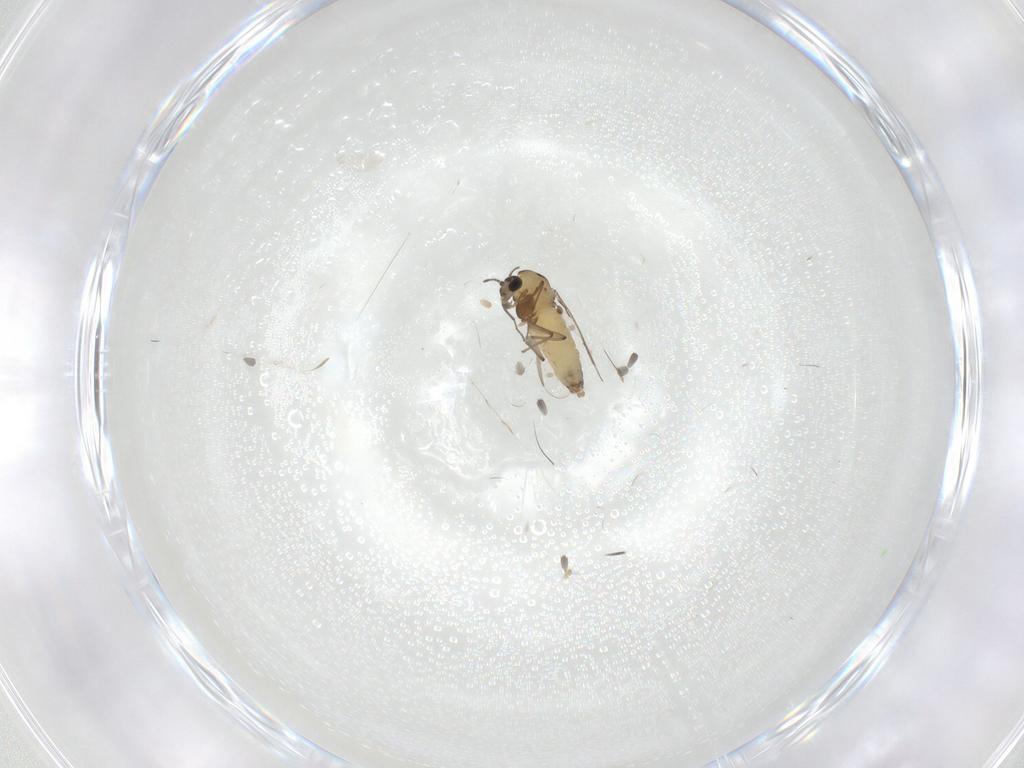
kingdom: Animalia
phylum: Arthropoda
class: Insecta
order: Diptera
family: Chironomidae
